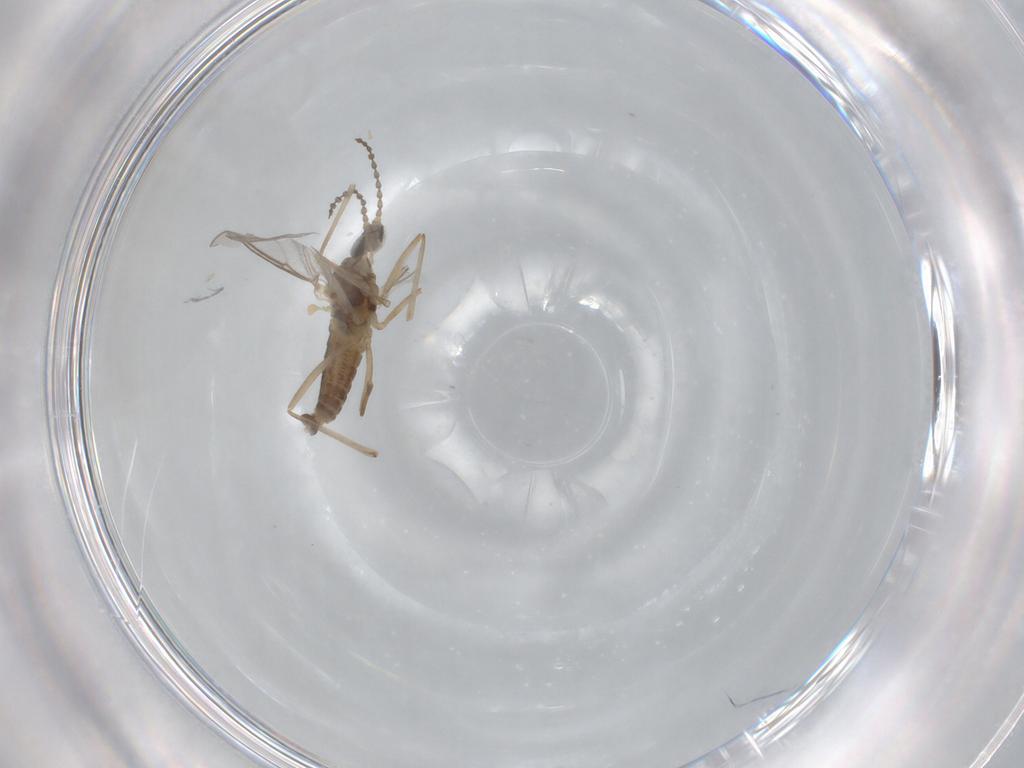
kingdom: Animalia
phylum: Arthropoda
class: Insecta
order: Diptera
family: Cecidomyiidae
